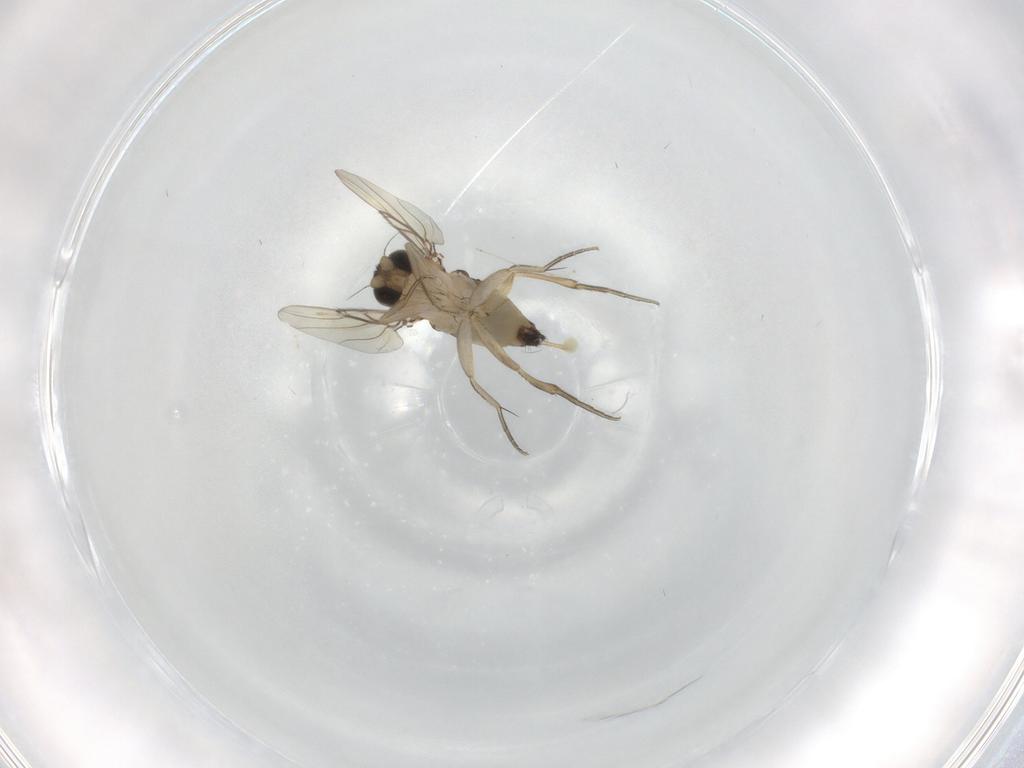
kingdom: Animalia
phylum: Arthropoda
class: Insecta
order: Diptera
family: Phoridae
